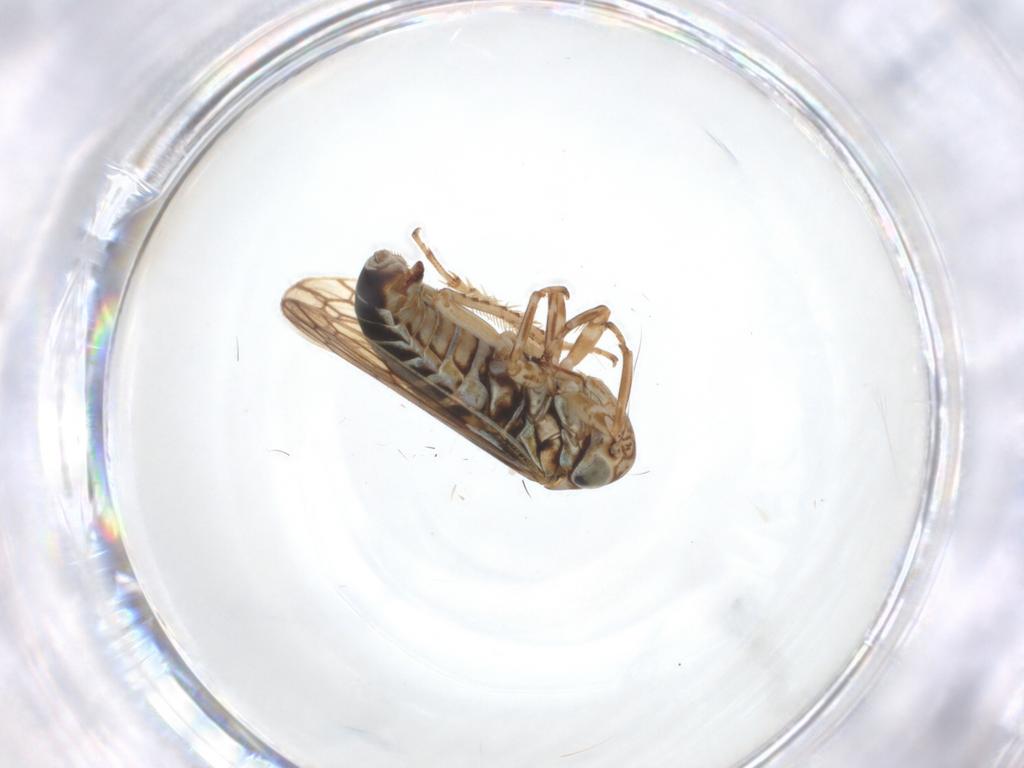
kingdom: Animalia
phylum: Arthropoda
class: Insecta
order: Hemiptera
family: Cicadellidae
